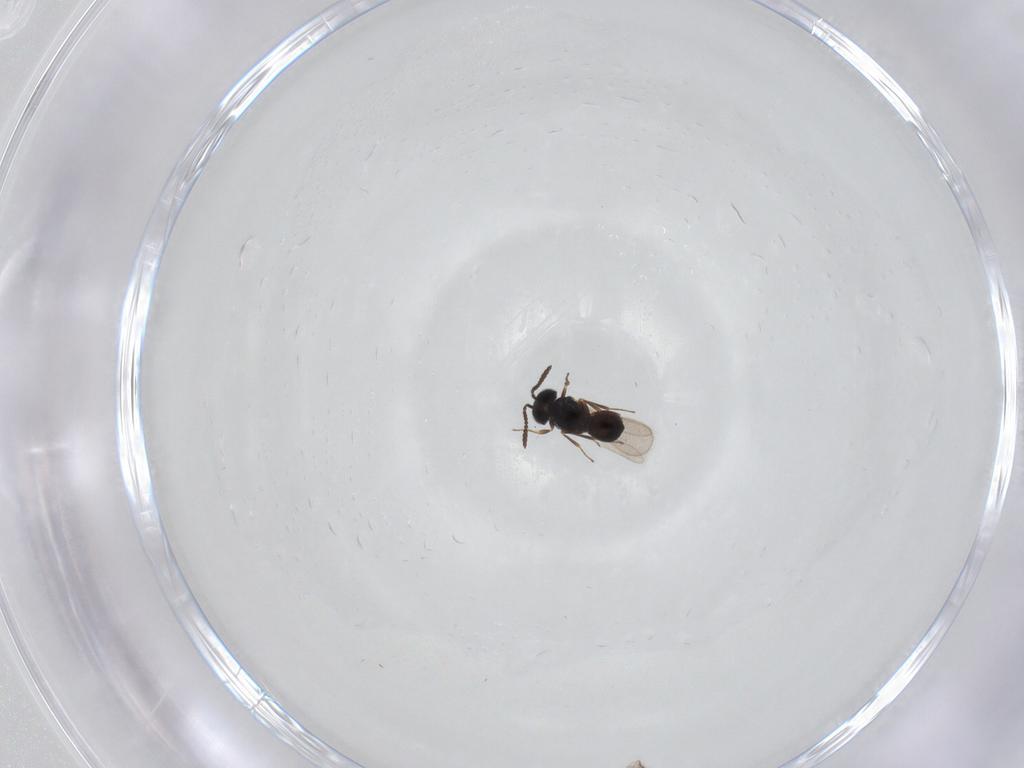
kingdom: Animalia
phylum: Arthropoda
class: Insecta
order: Hymenoptera
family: Scelionidae
